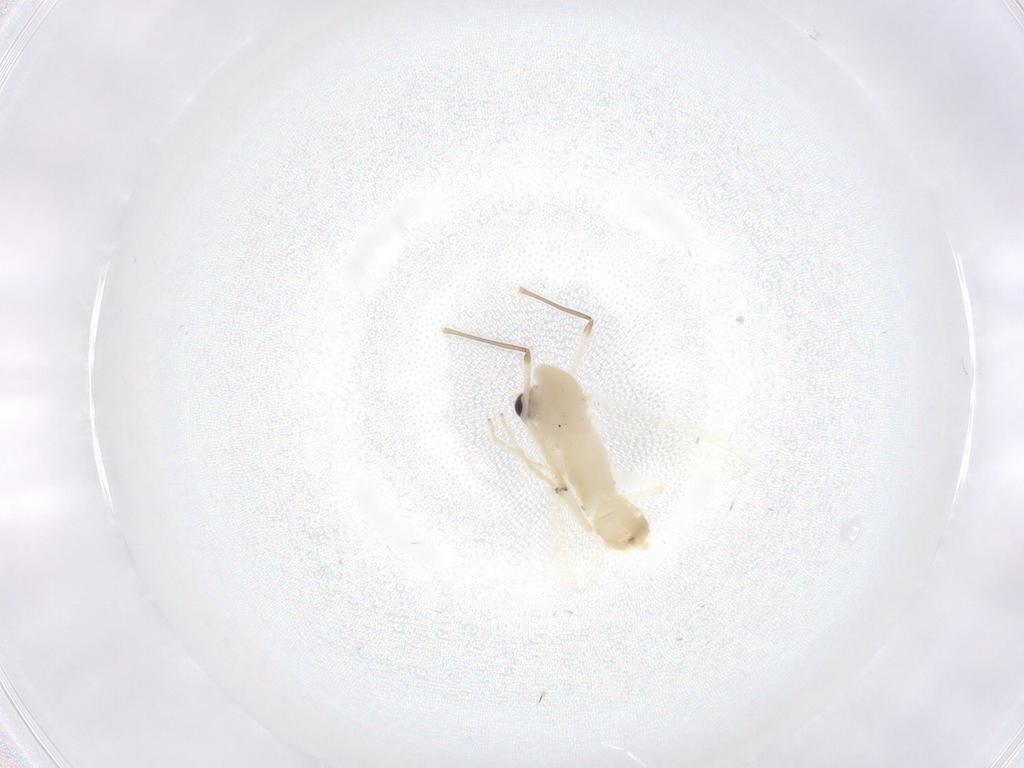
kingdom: Animalia
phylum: Arthropoda
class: Insecta
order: Diptera
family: Chironomidae
